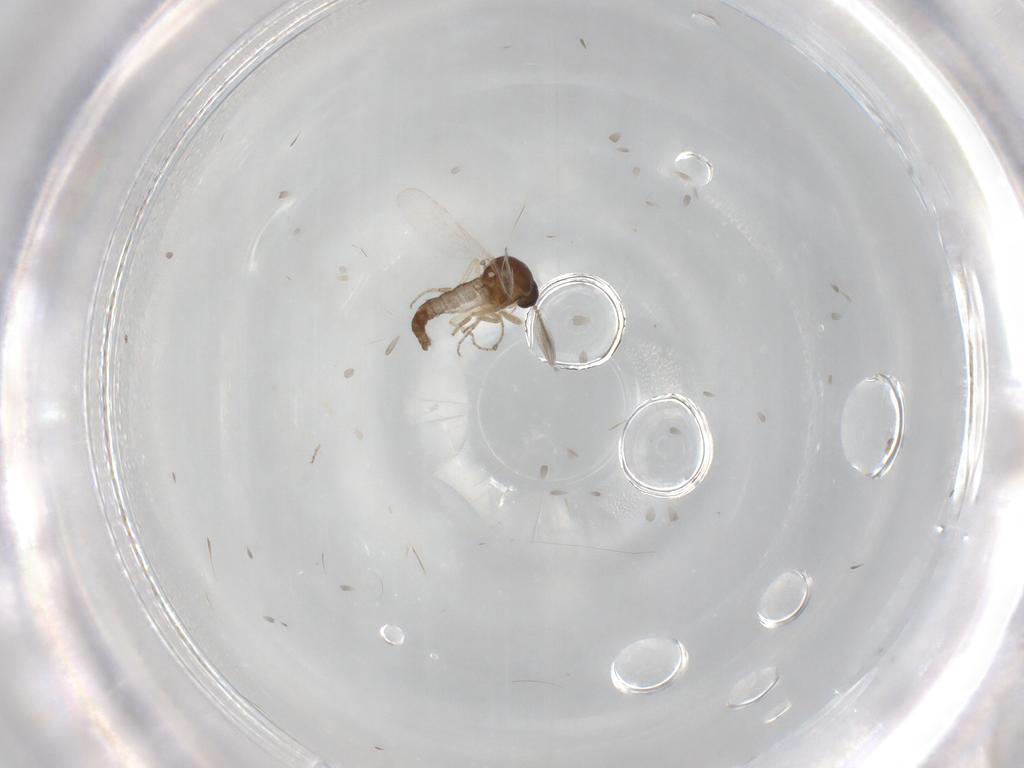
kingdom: Animalia
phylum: Arthropoda
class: Insecta
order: Diptera
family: Ceratopogonidae
